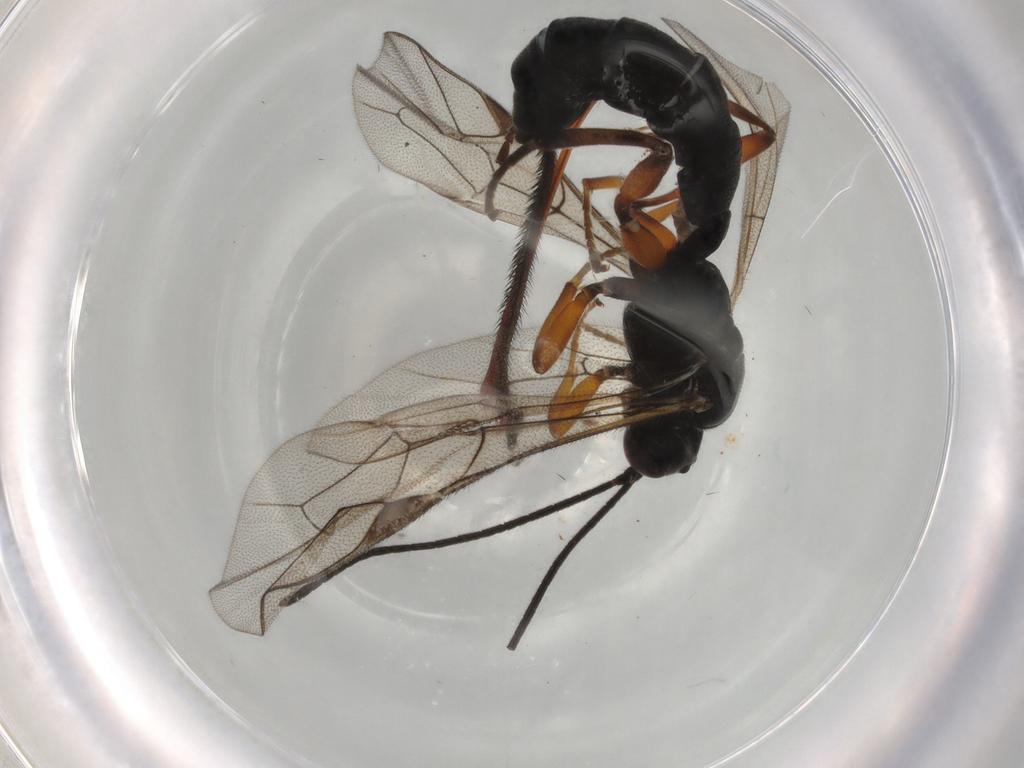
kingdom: Animalia
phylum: Arthropoda
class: Insecta
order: Hymenoptera
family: Ichneumonidae
